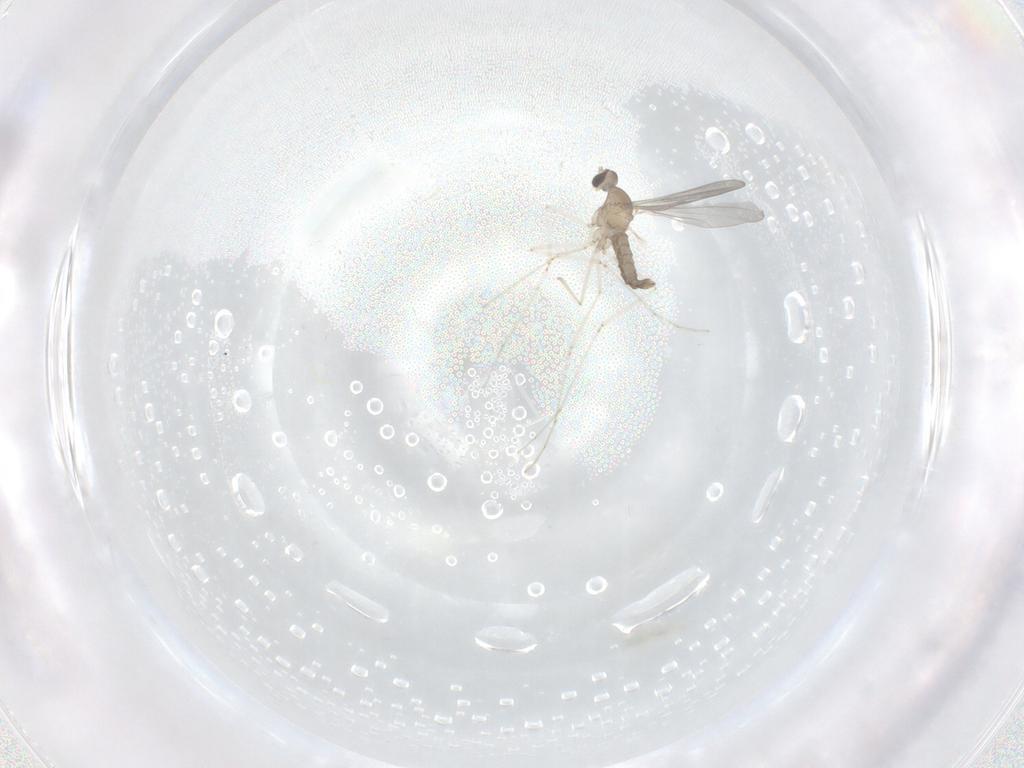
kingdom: Animalia
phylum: Arthropoda
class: Insecta
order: Diptera
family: Cecidomyiidae
